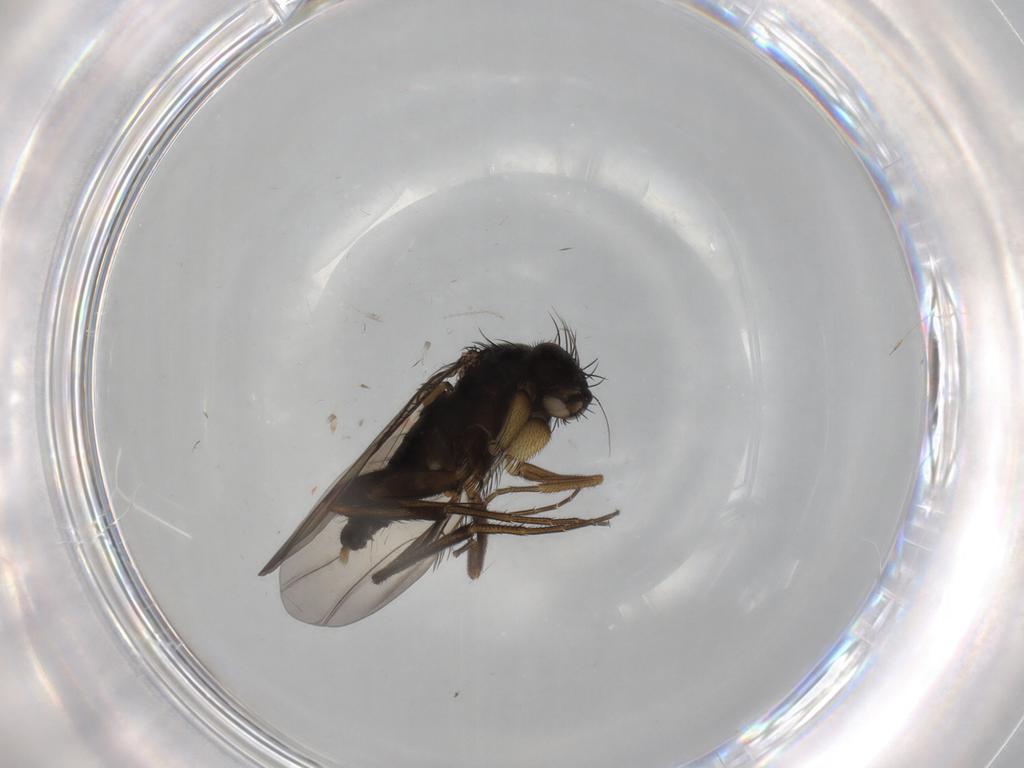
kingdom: Animalia
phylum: Arthropoda
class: Insecta
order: Diptera
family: Phoridae
